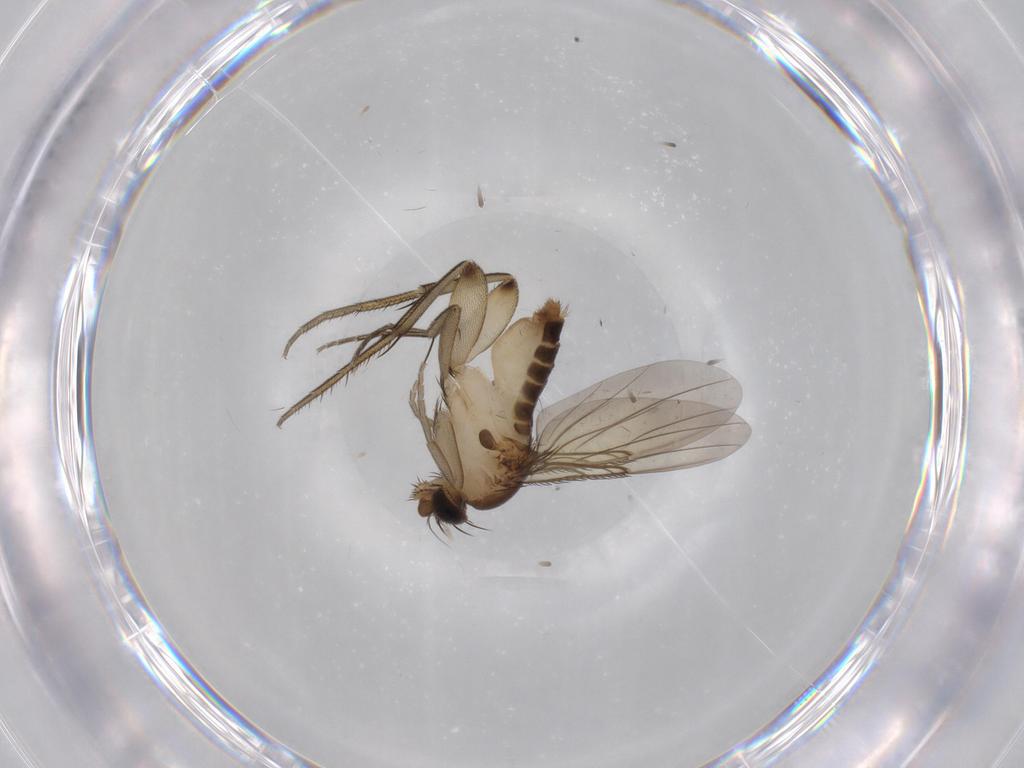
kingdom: Animalia
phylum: Arthropoda
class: Insecta
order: Diptera
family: Phoridae
